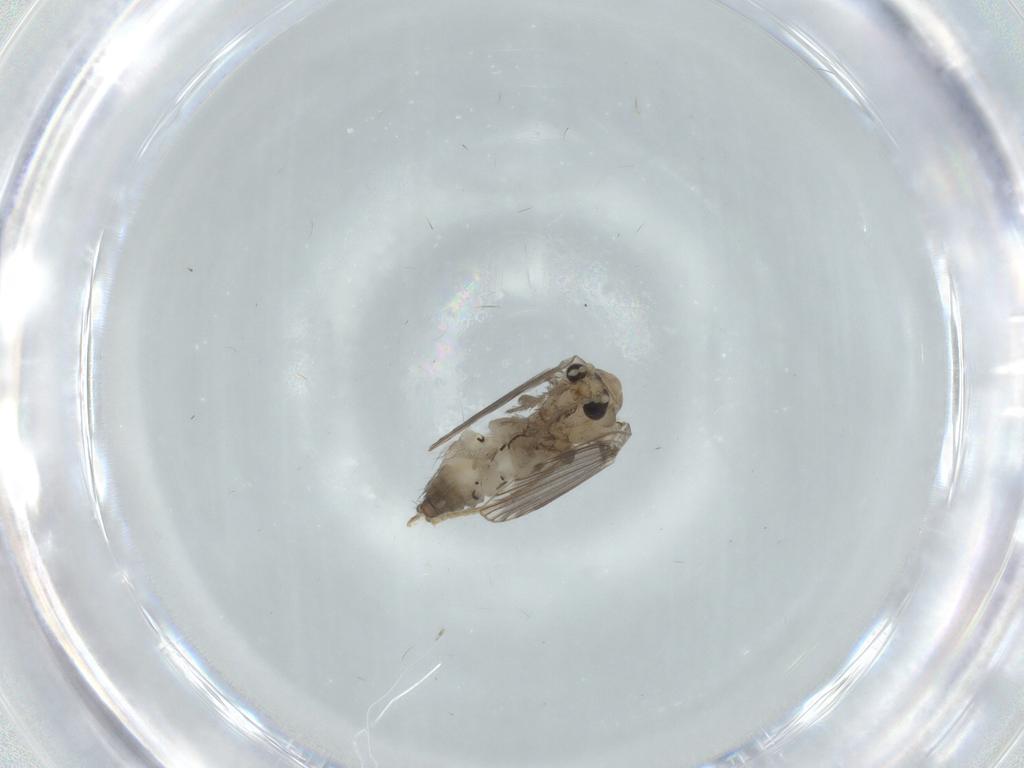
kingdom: Animalia
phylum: Arthropoda
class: Insecta
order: Diptera
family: Psychodidae
